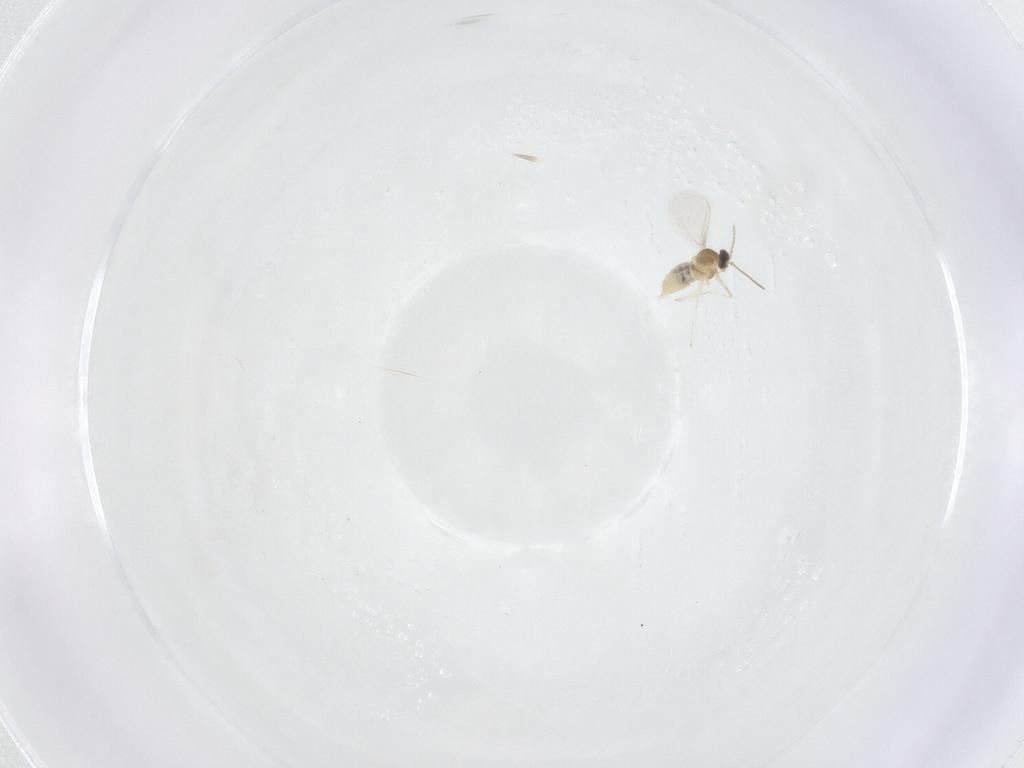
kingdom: Animalia
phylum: Arthropoda
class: Insecta
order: Diptera
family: Cecidomyiidae
